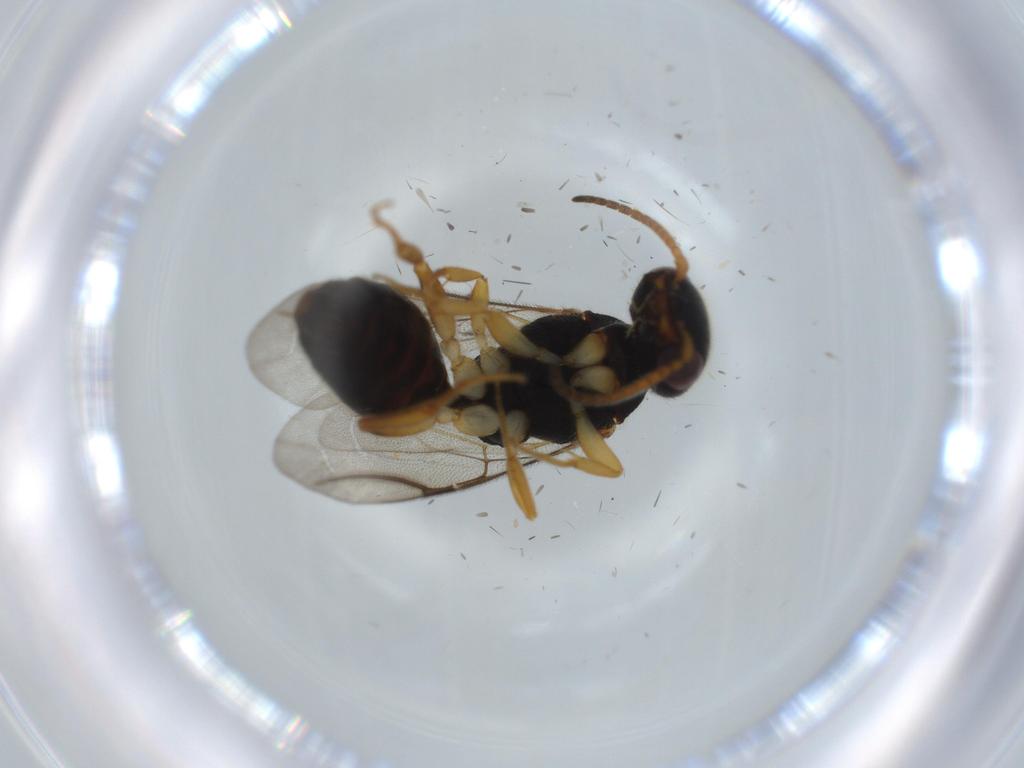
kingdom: Animalia
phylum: Arthropoda
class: Insecta
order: Hymenoptera
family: Bethylidae
